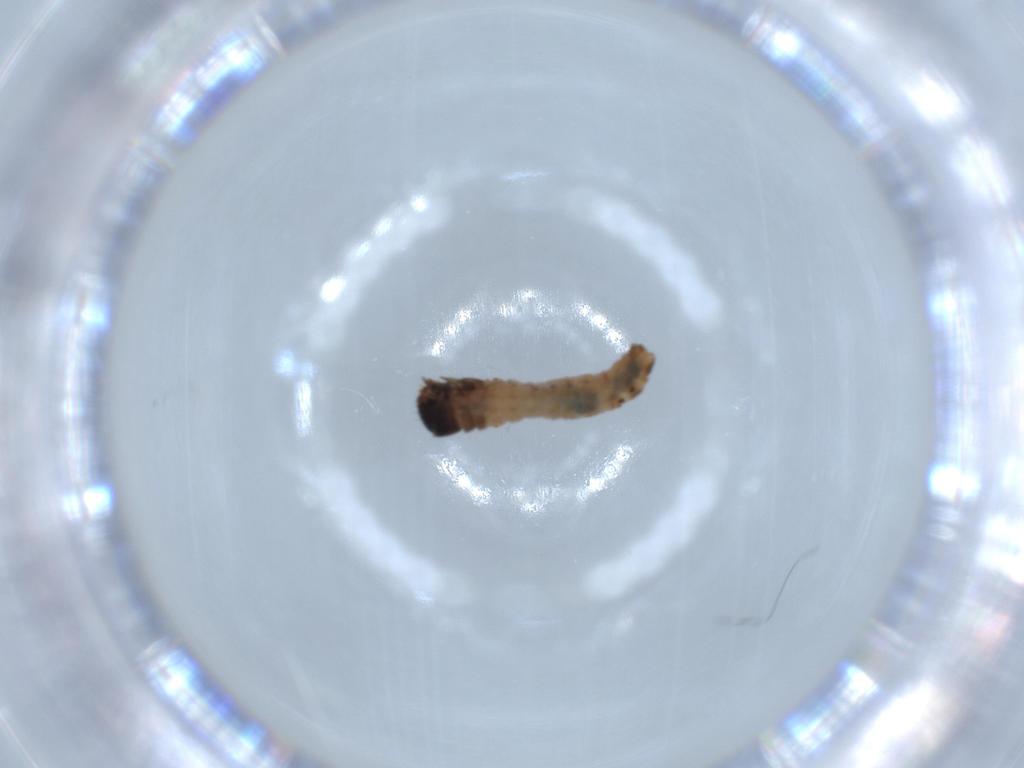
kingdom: Animalia
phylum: Arthropoda
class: Insecta
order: Lepidoptera
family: Psychidae
